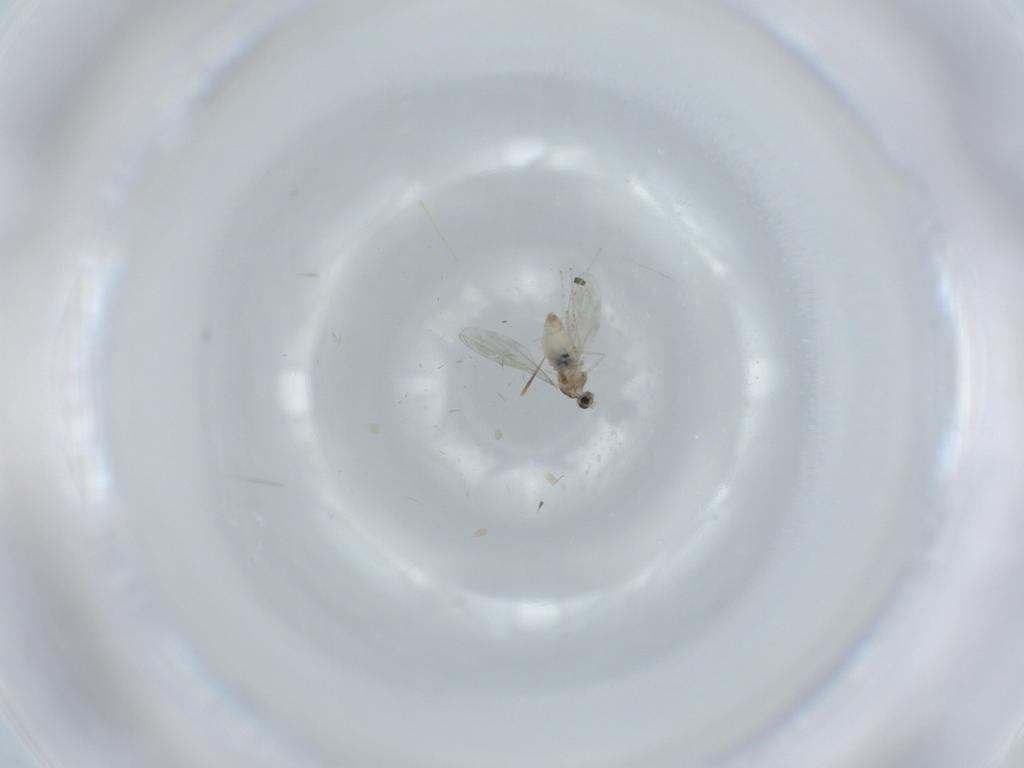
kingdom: Animalia
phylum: Arthropoda
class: Insecta
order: Diptera
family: Cecidomyiidae
